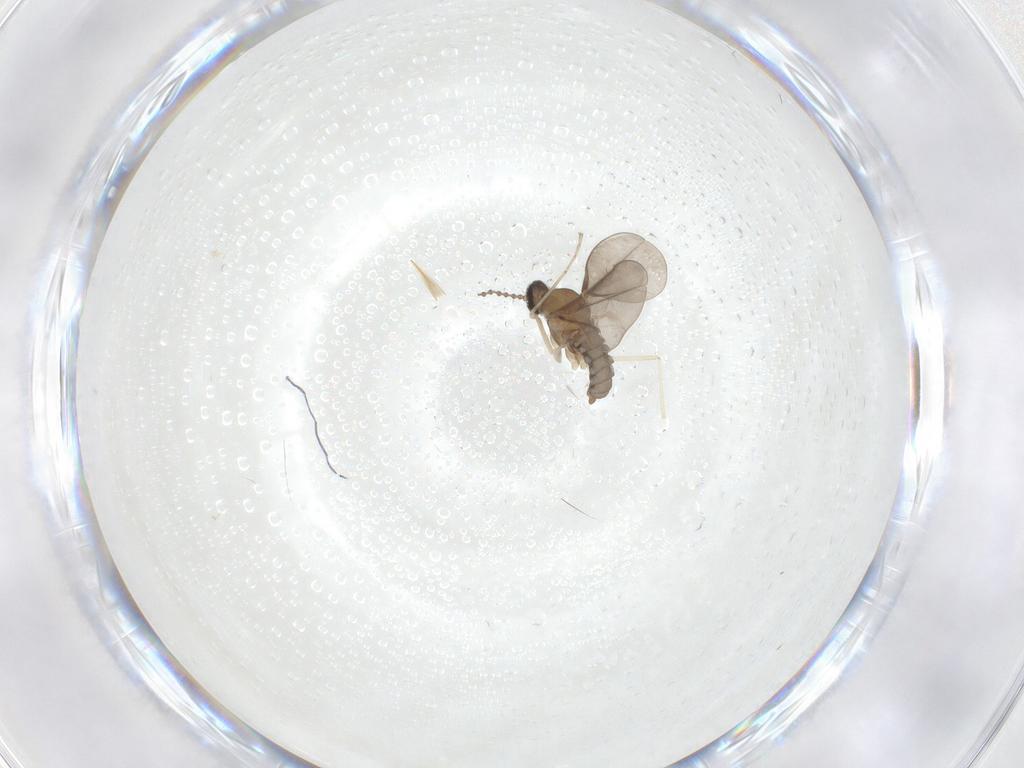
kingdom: Animalia
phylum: Arthropoda
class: Insecta
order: Diptera
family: Cecidomyiidae
